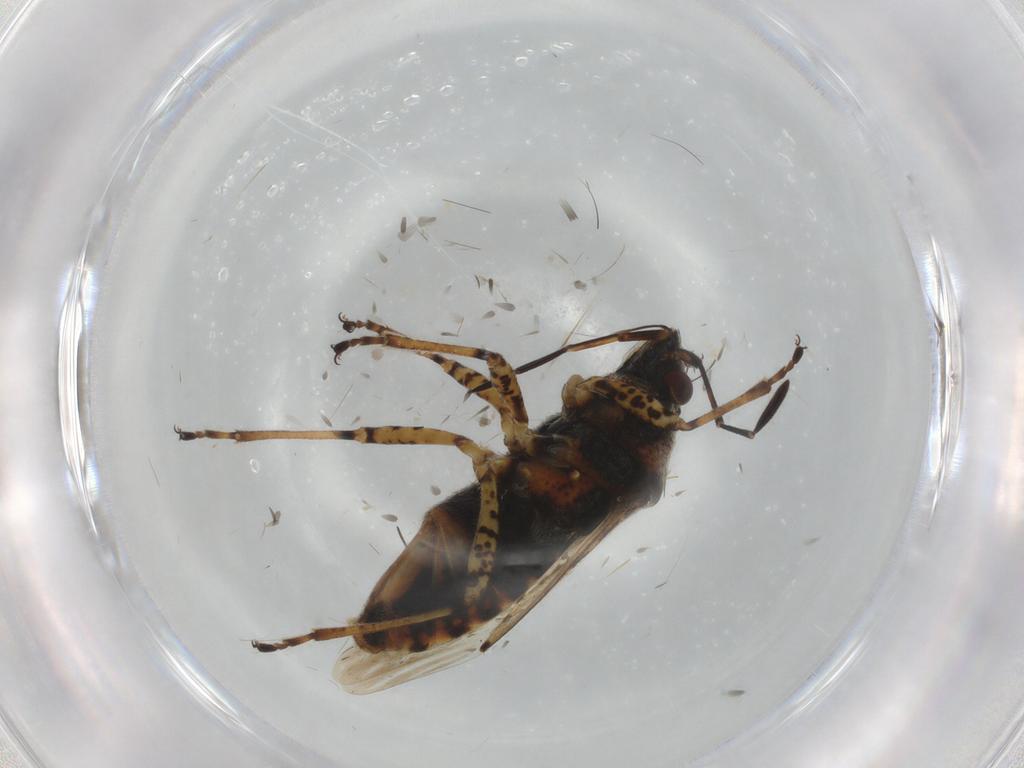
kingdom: Animalia
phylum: Arthropoda
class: Insecta
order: Hemiptera
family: Lygaeidae
